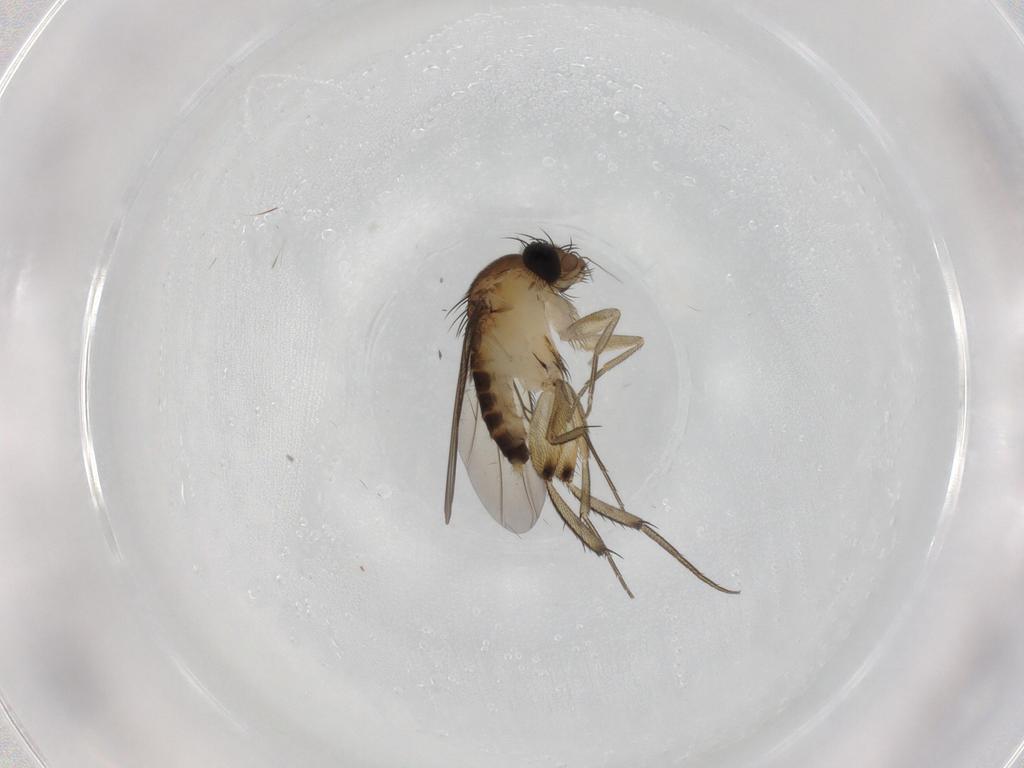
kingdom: Animalia
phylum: Arthropoda
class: Insecta
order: Diptera
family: Phoridae
